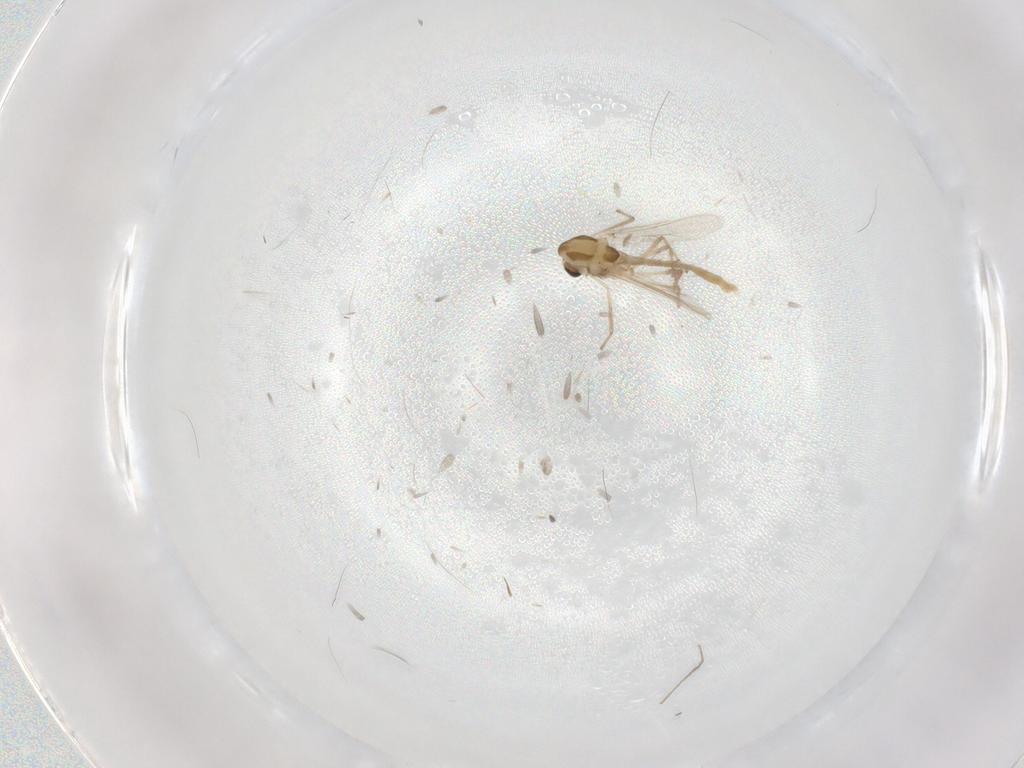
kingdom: Animalia
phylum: Arthropoda
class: Insecta
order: Diptera
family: Chironomidae
